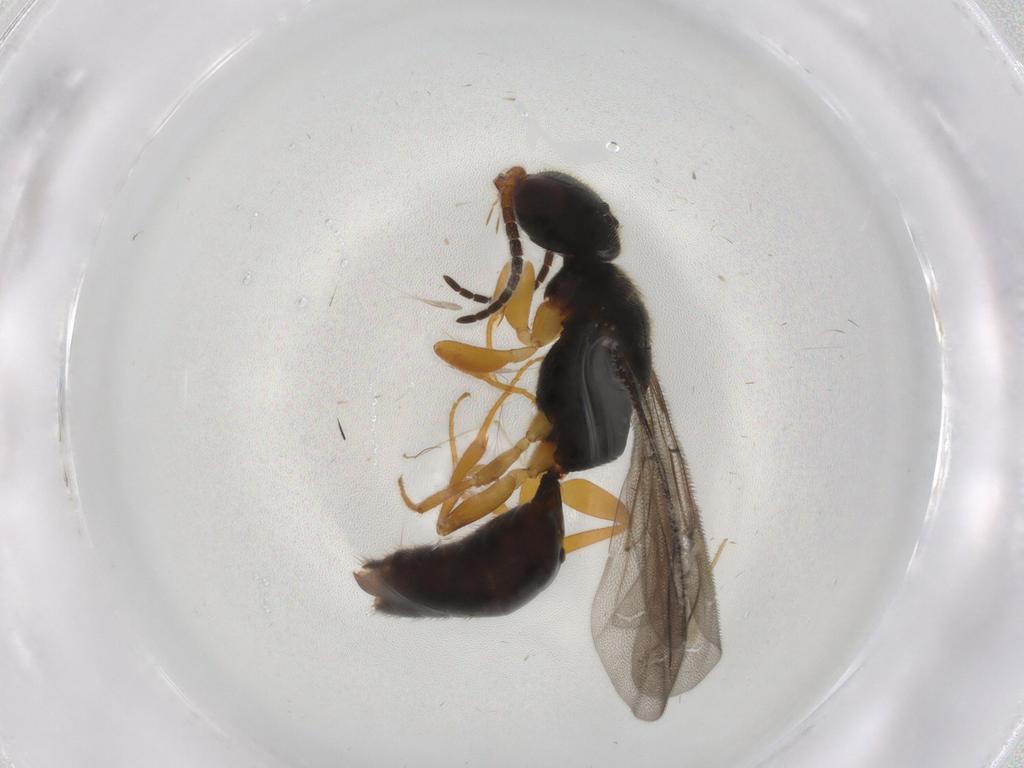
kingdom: Animalia
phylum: Arthropoda
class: Insecta
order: Hymenoptera
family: Bethylidae
